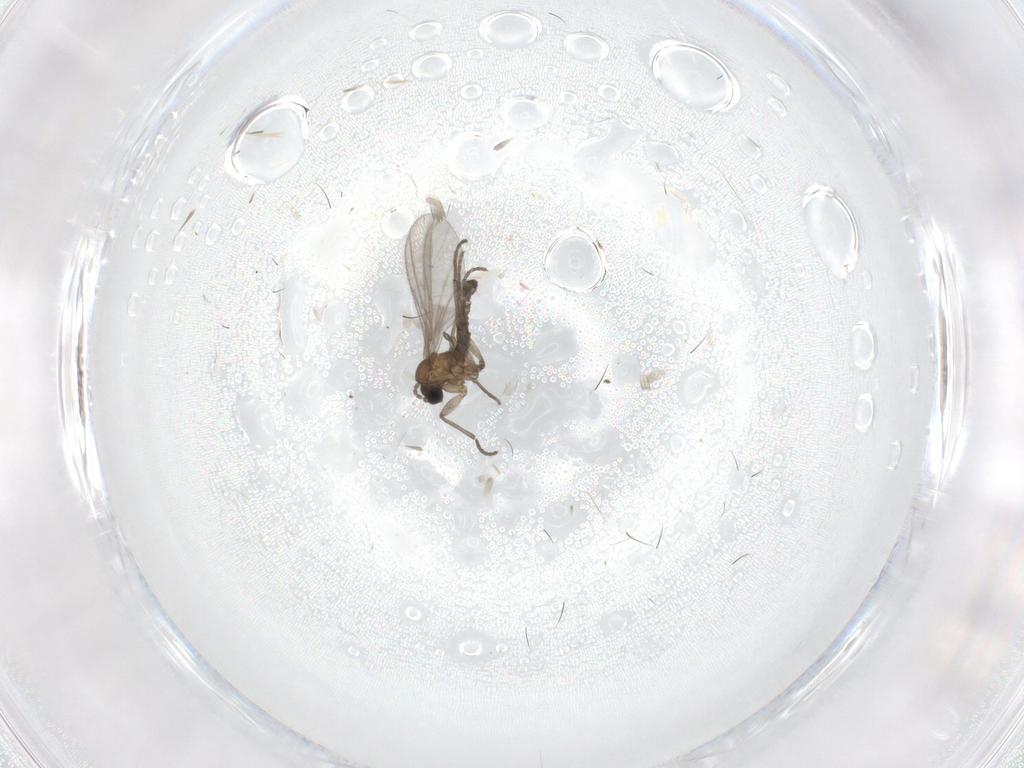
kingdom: Animalia
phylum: Arthropoda
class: Insecta
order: Diptera
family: Sciaridae
